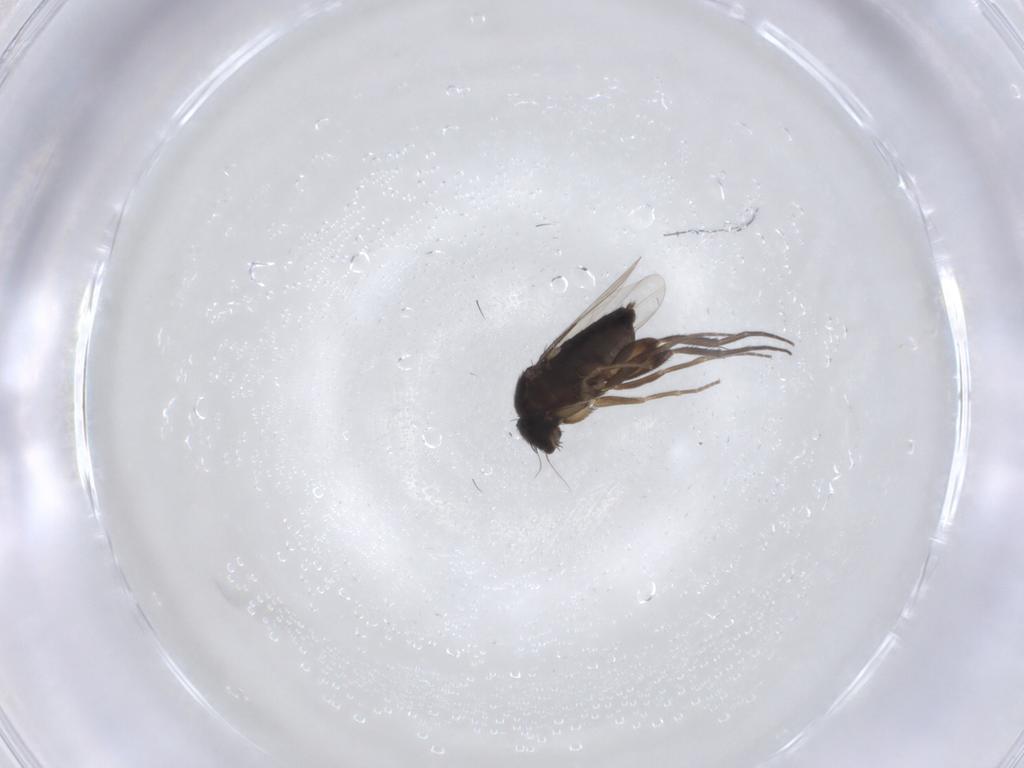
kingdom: Animalia
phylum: Arthropoda
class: Insecta
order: Diptera
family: Phoridae
